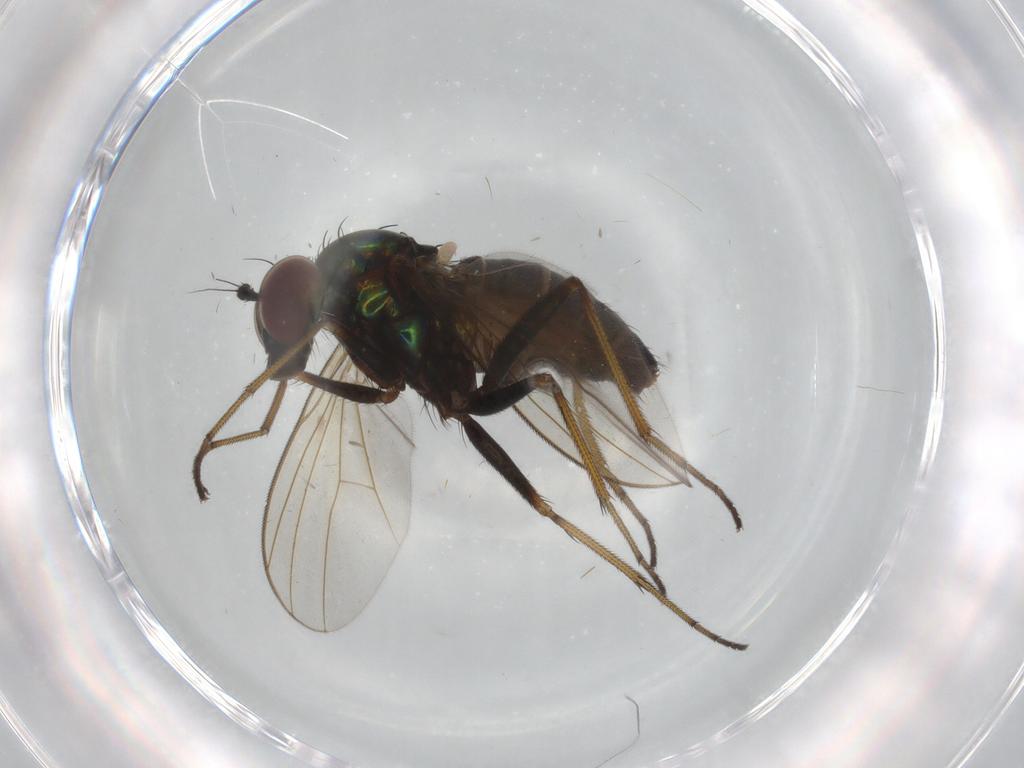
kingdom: Animalia
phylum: Arthropoda
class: Insecta
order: Diptera
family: Dolichopodidae
